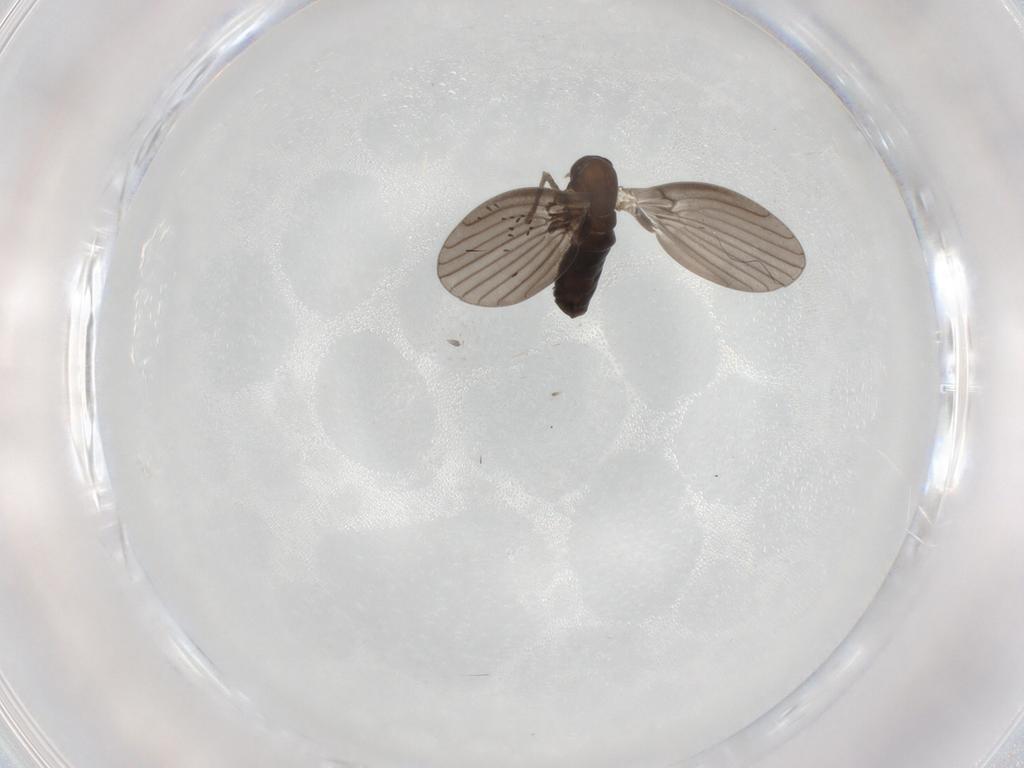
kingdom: Animalia
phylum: Arthropoda
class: Insecta
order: Diptera
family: Psychodidae
